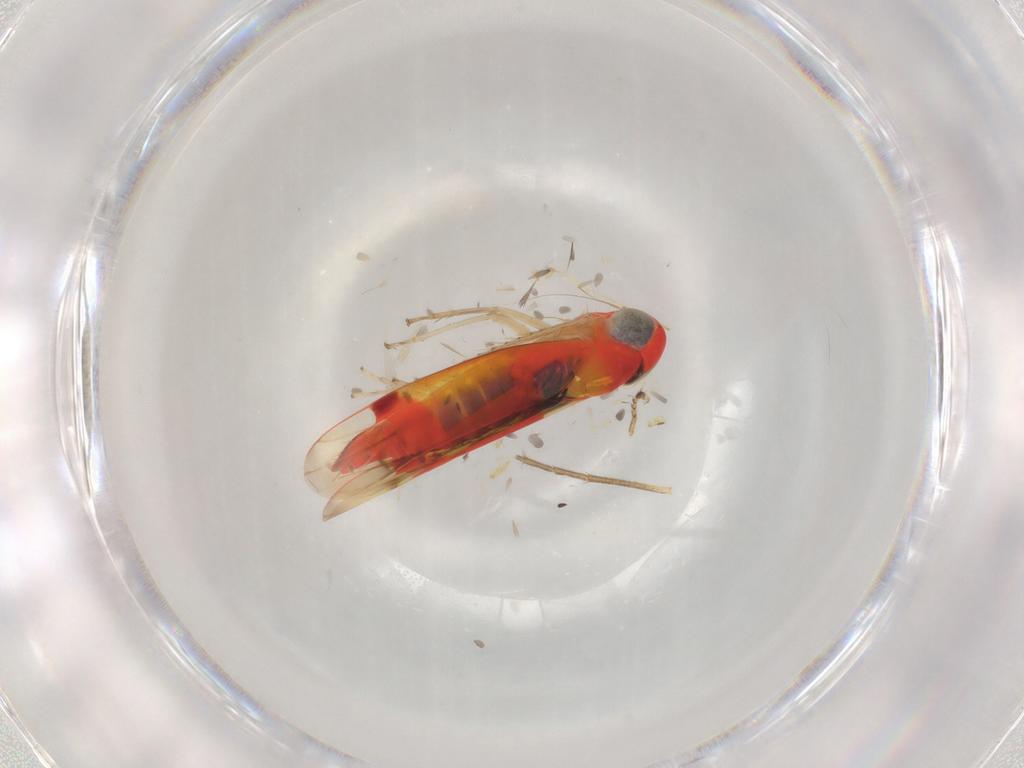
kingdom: Animalia
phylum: Arthropoda
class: Insecta
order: Hemiptera
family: Cicadellidae
